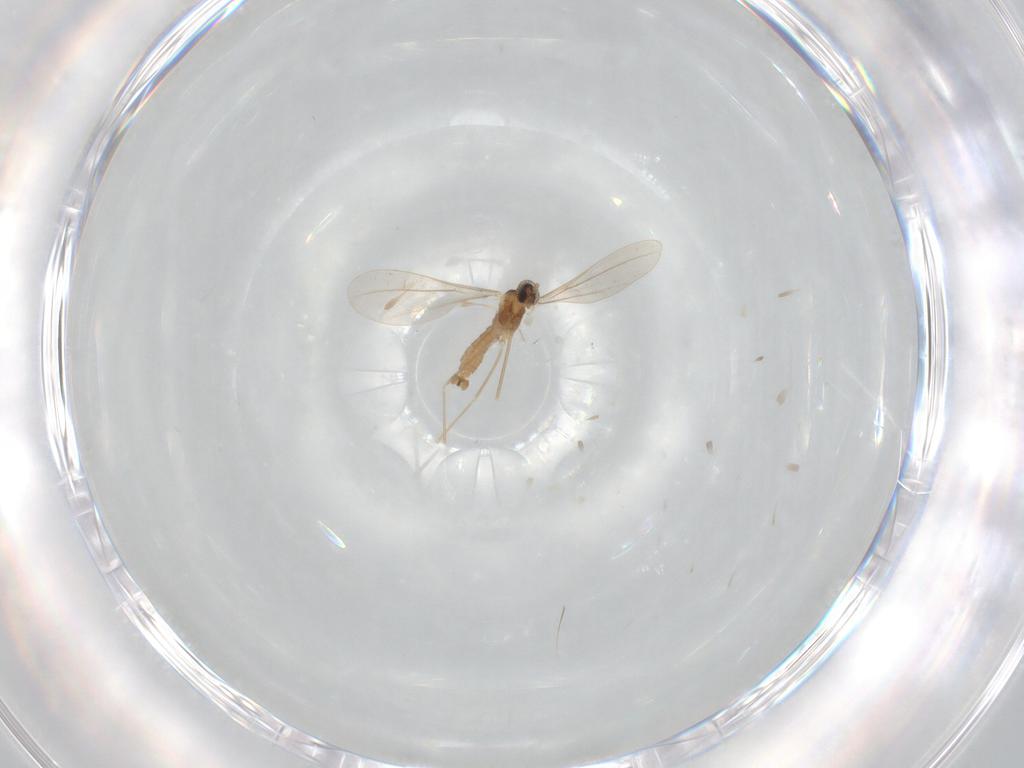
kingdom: Animalia
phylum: Arthropoda
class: Insecta
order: Diptera
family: Cecidomyiidae
